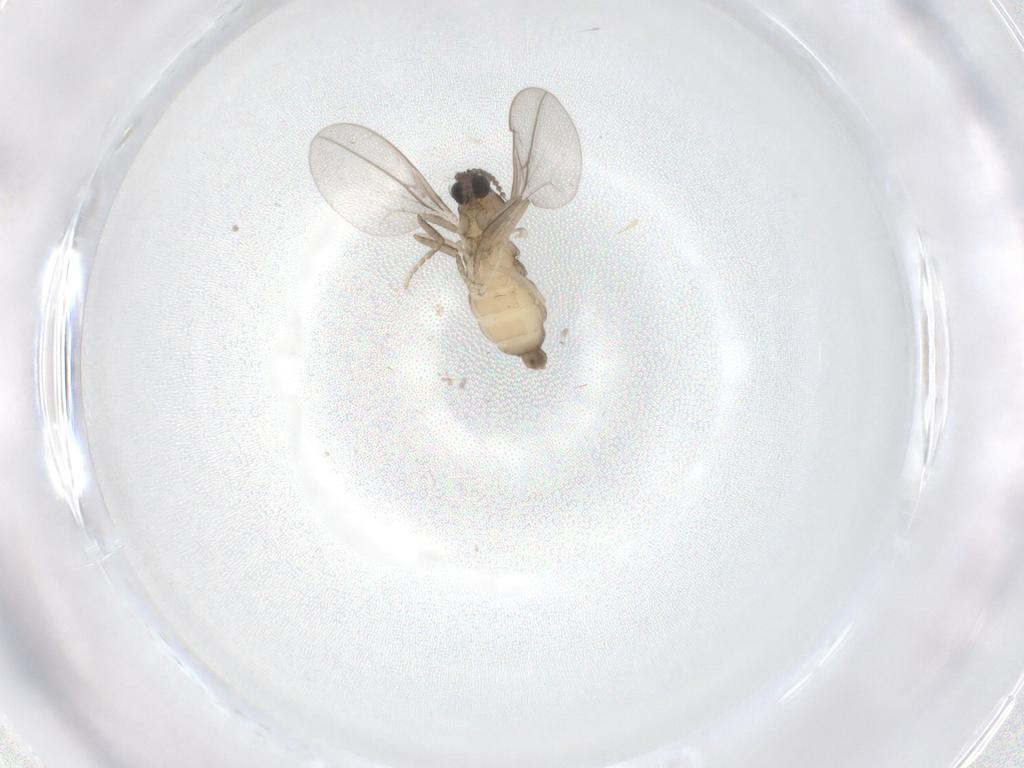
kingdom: Animalia
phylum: Arthropoda
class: Insecta
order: Diptera
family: Cecidomyiidae
